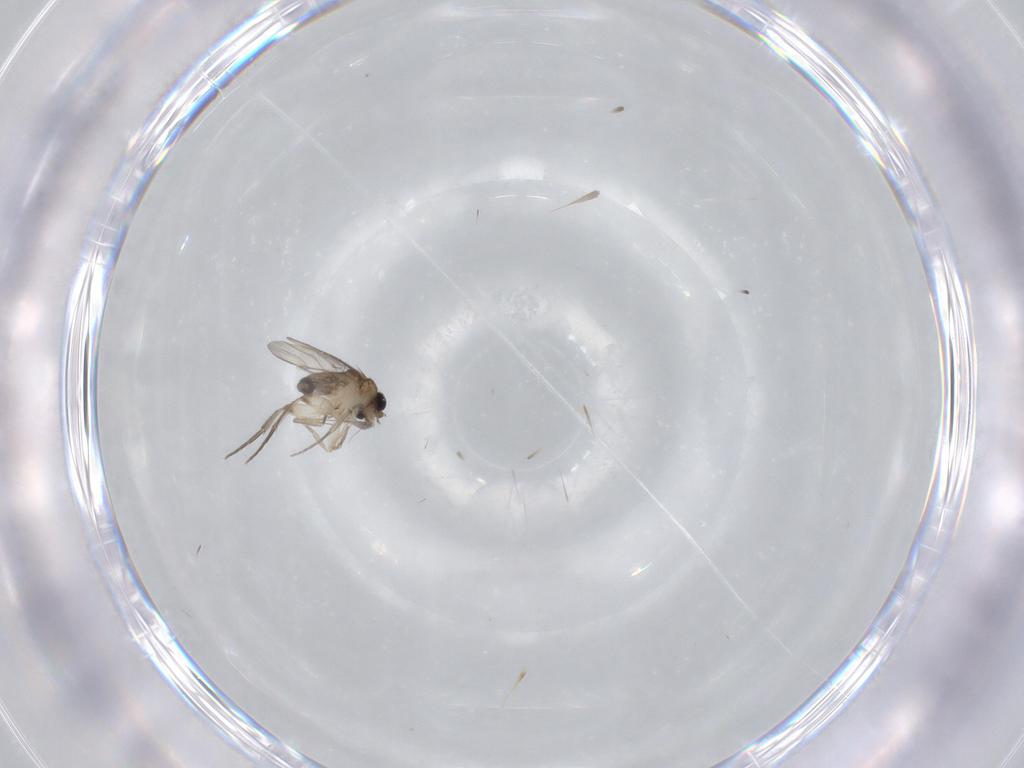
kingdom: Animalia
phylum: Arthropoda
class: Insecta
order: Diptera
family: Phoridae
